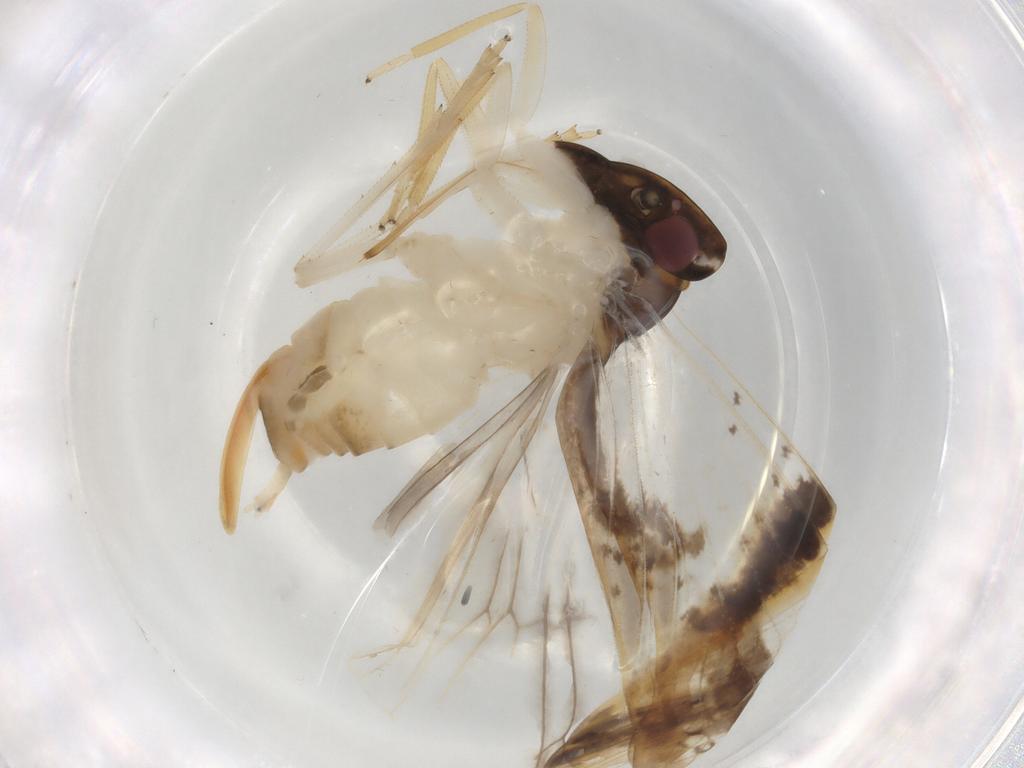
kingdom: Animalia
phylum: Arthropoda
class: Insecta
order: Hemiptera
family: Cixiidae
